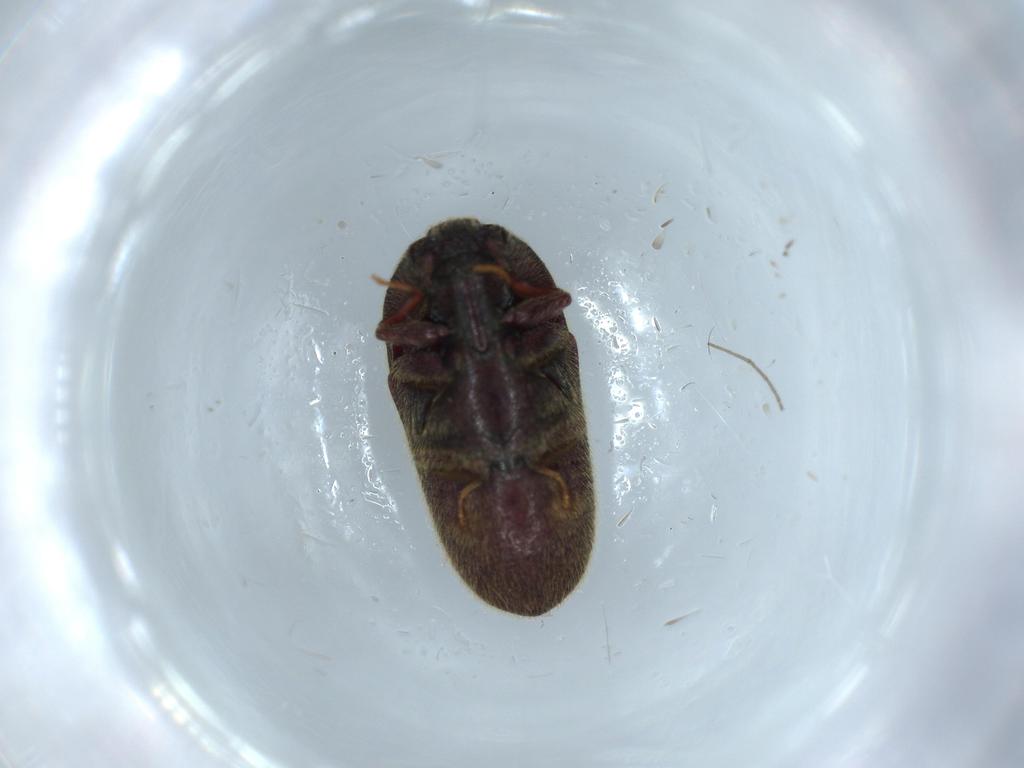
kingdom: Animalia
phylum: Arthropoda
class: Insecta
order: Coleoptera
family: Throscidae
